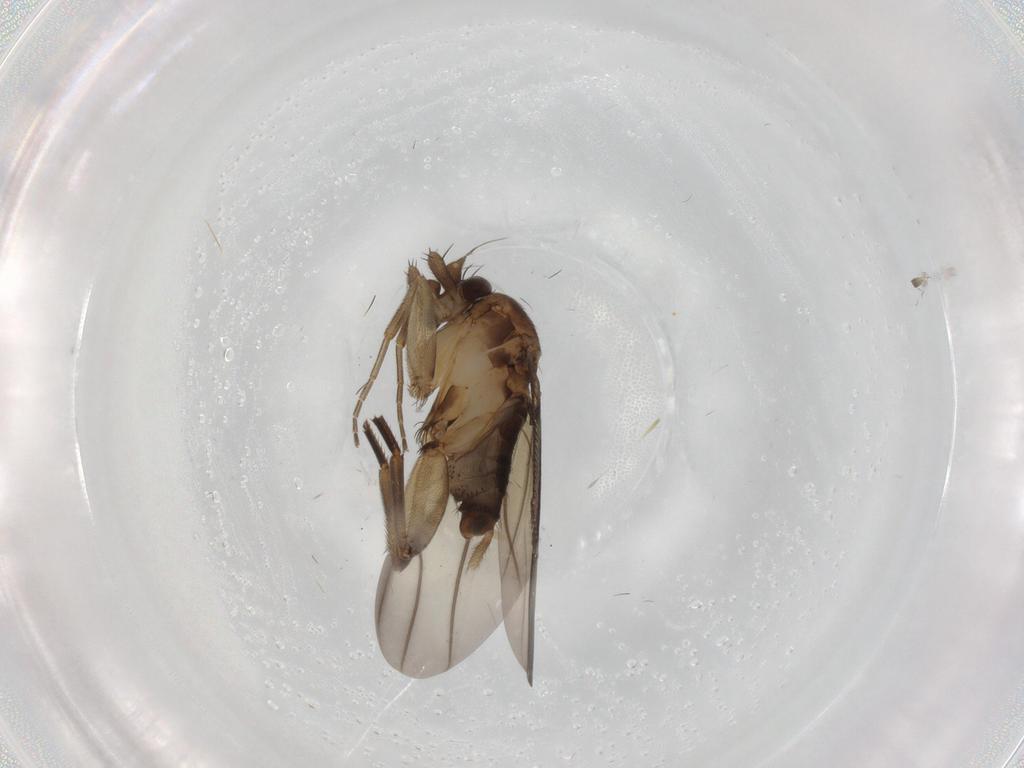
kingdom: Animalia
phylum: Arthropoda
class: Insecta
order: Diptera
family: Phoridae
